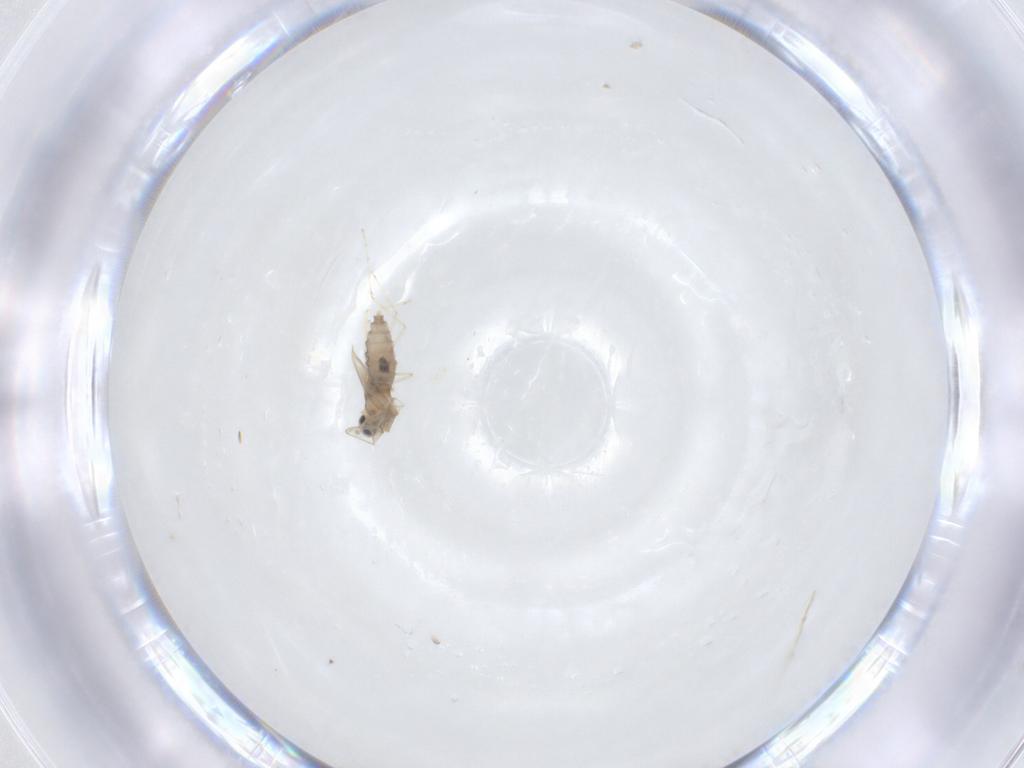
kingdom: Animalia
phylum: Arthropoda
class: Insecta
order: Diptera
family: Cecidomyiidae
